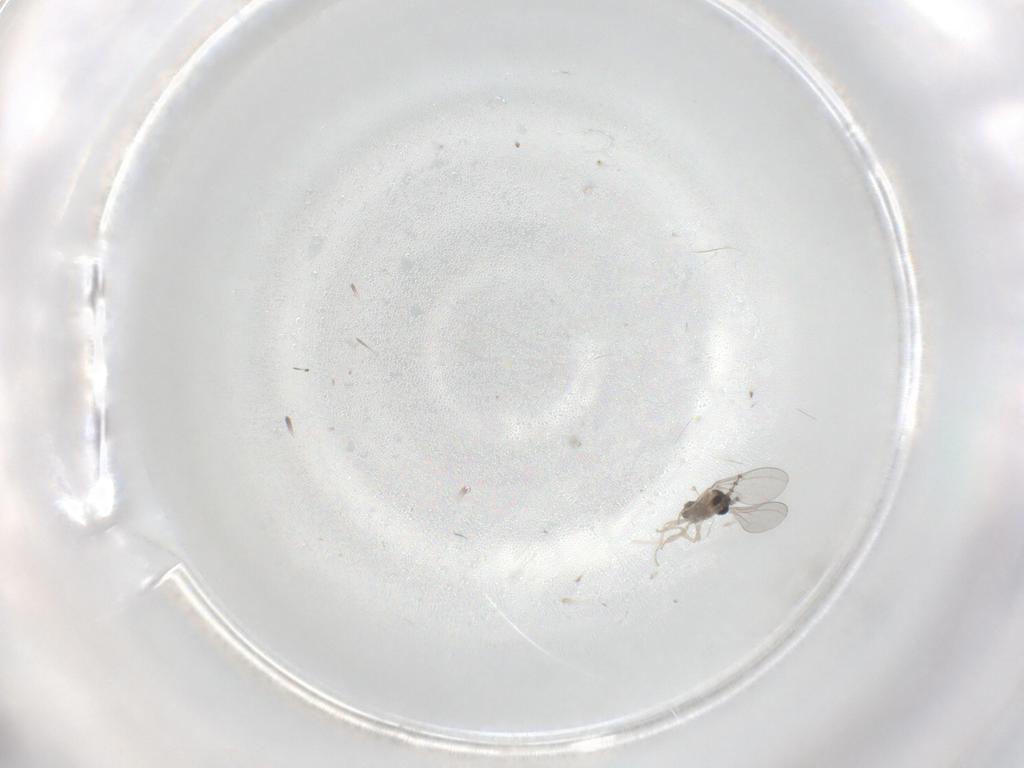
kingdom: Animalia
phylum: Arthropoda
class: Insecta
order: Diptera
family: Cecidomyiidae
